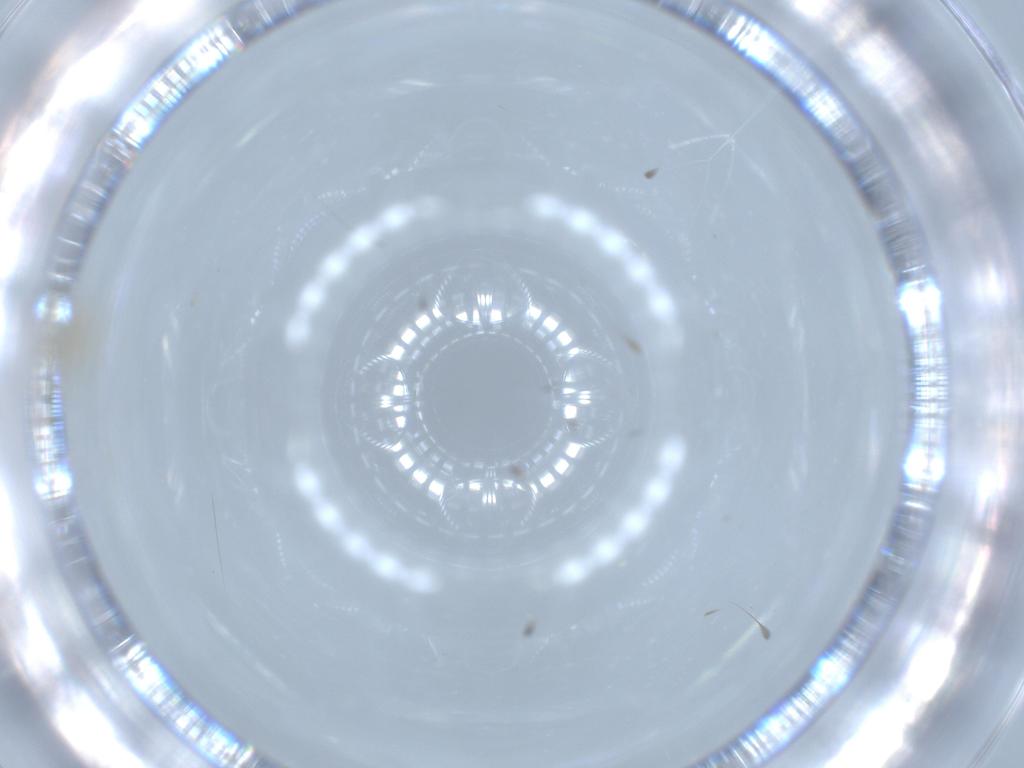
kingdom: Animalia
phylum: Arthropoda
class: Insecta
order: Diptera
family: Cecidomyiidae
